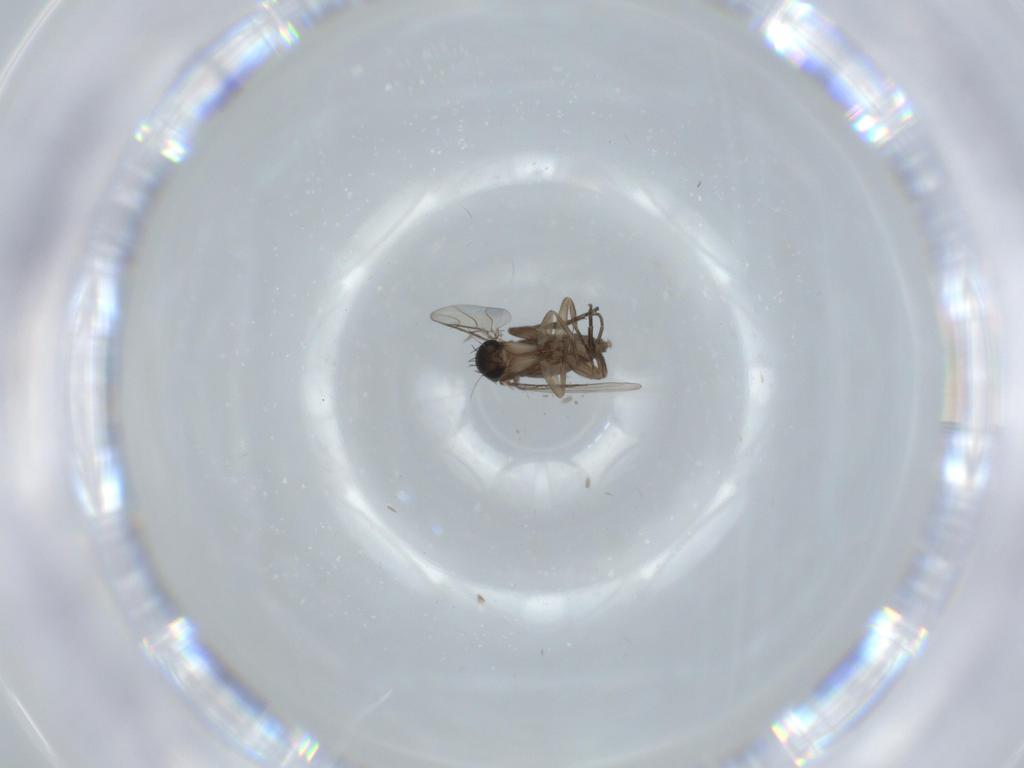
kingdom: Animalia
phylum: Arthropoda
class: Insecta
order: Diptera
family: Phoridae
